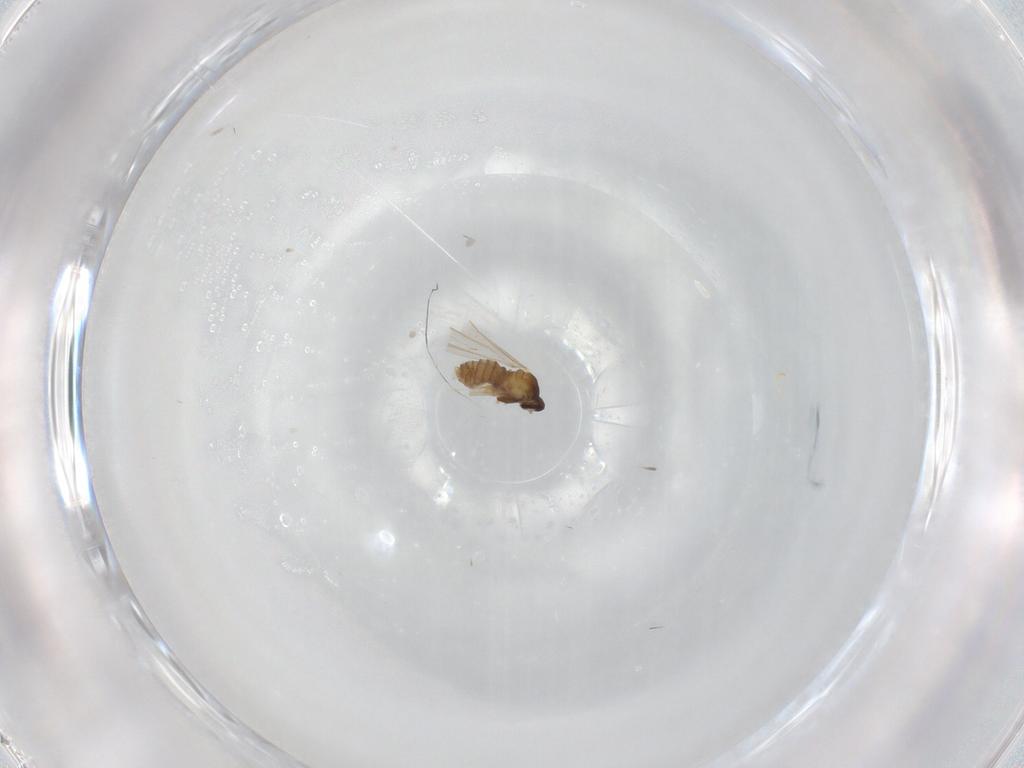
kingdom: Animalia
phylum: Arthropoda
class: Insecta
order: Diptera
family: Cecidomyiidae
